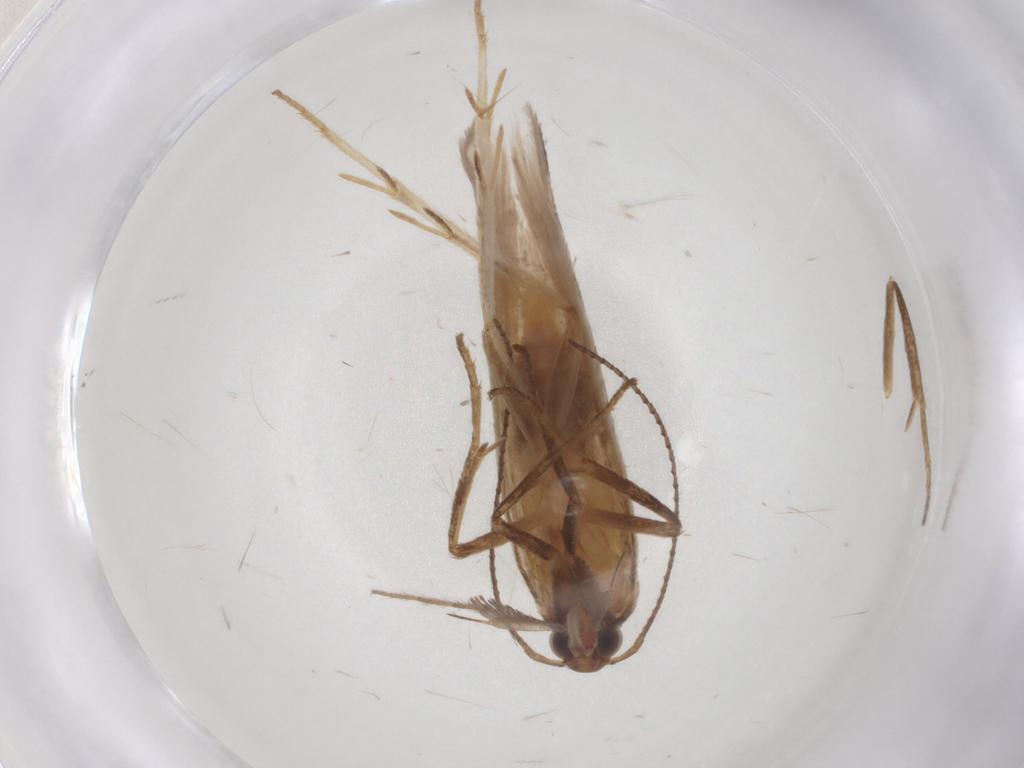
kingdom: Animalia
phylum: Arthropoda
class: Insecta
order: Lepidoptera
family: Gelechiidae
